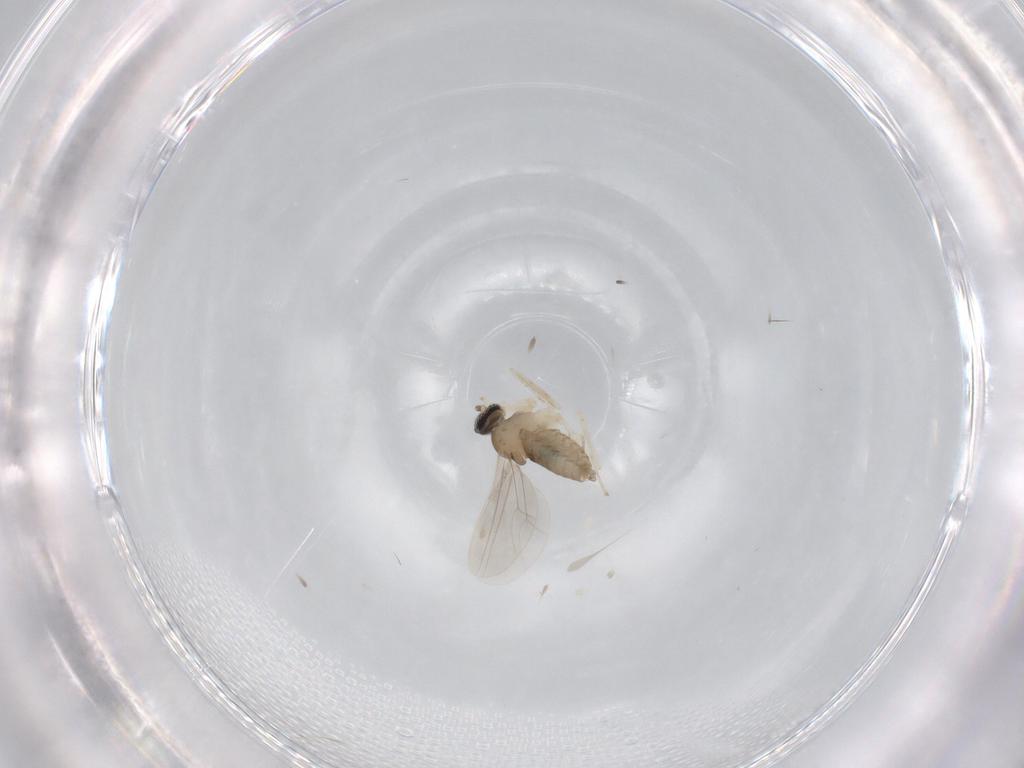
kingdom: Animalia
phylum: Arthropoda
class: Insecta
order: Diptera
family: Cecidomyiidae
